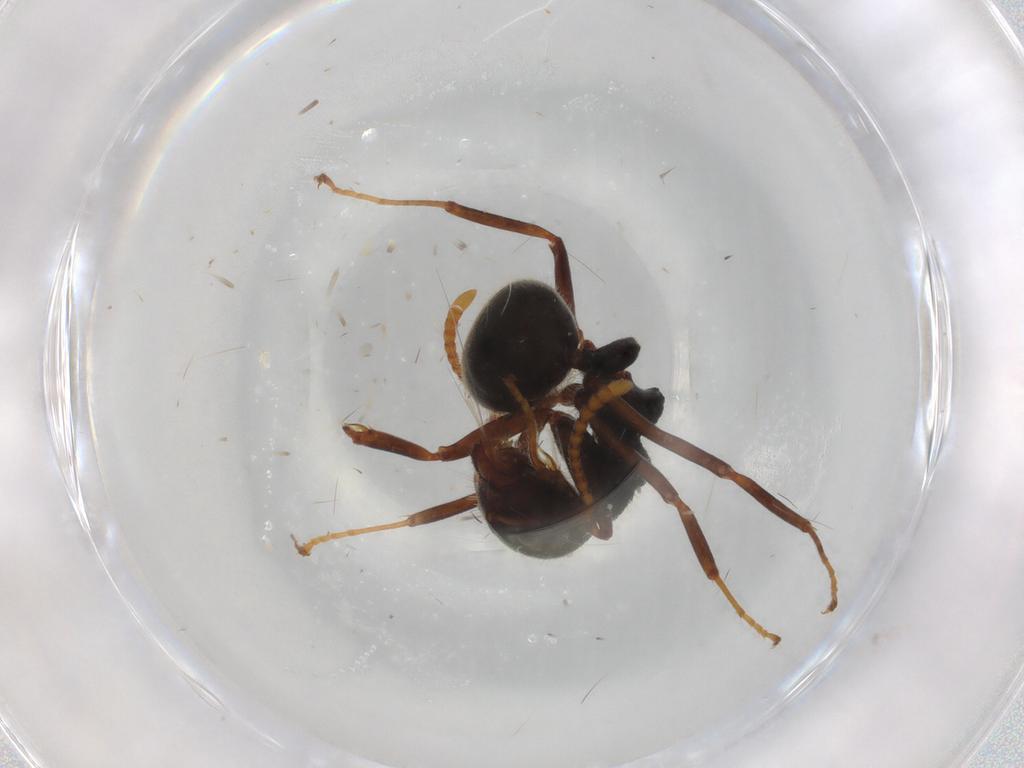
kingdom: Animalia
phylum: Arthropoda
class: Insecta
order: Hymenoptera
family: Formicidae
